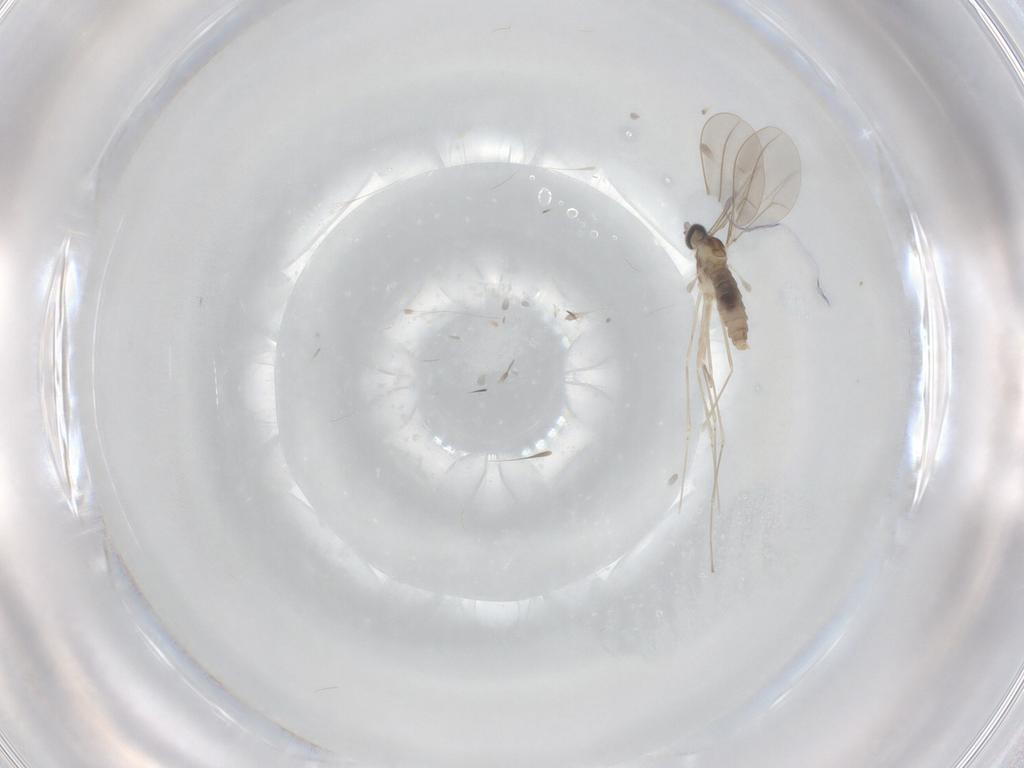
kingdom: Animalia
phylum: Arthropoda
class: Insecta
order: Diptera
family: Cecidomyiidae
